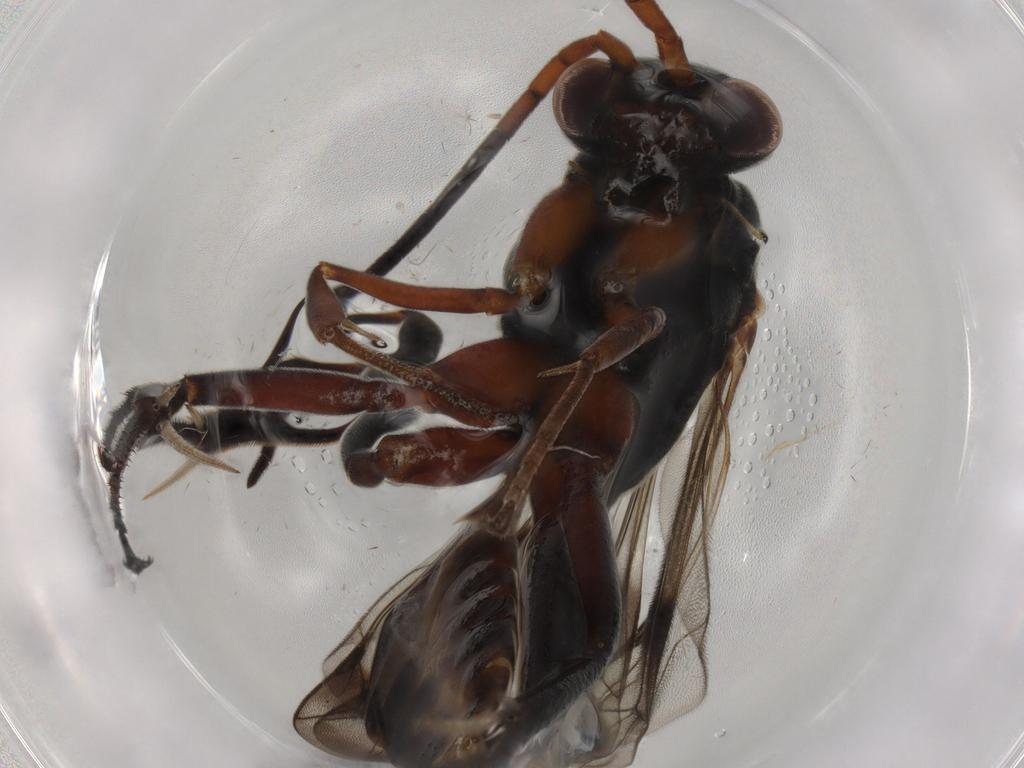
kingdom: Animalia
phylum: Arthropoda
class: Insecta
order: Hymenoptera
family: Pompilidae
